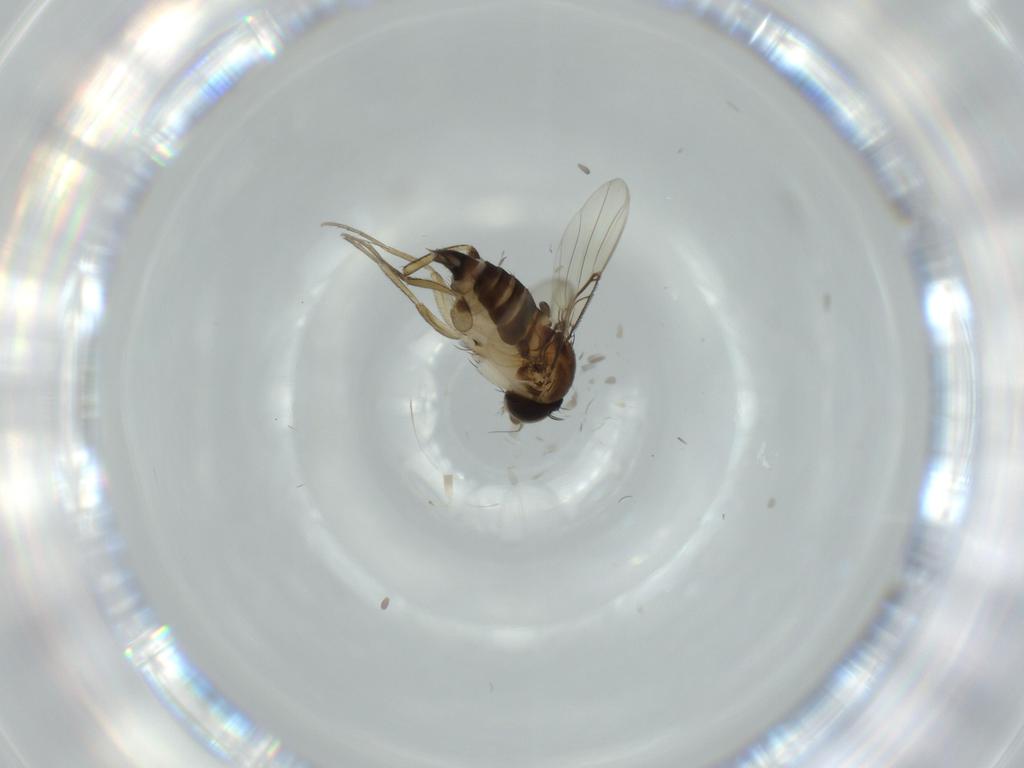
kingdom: Animalia
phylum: Arthropoda
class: Insecta
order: Diptera
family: Phoridae
